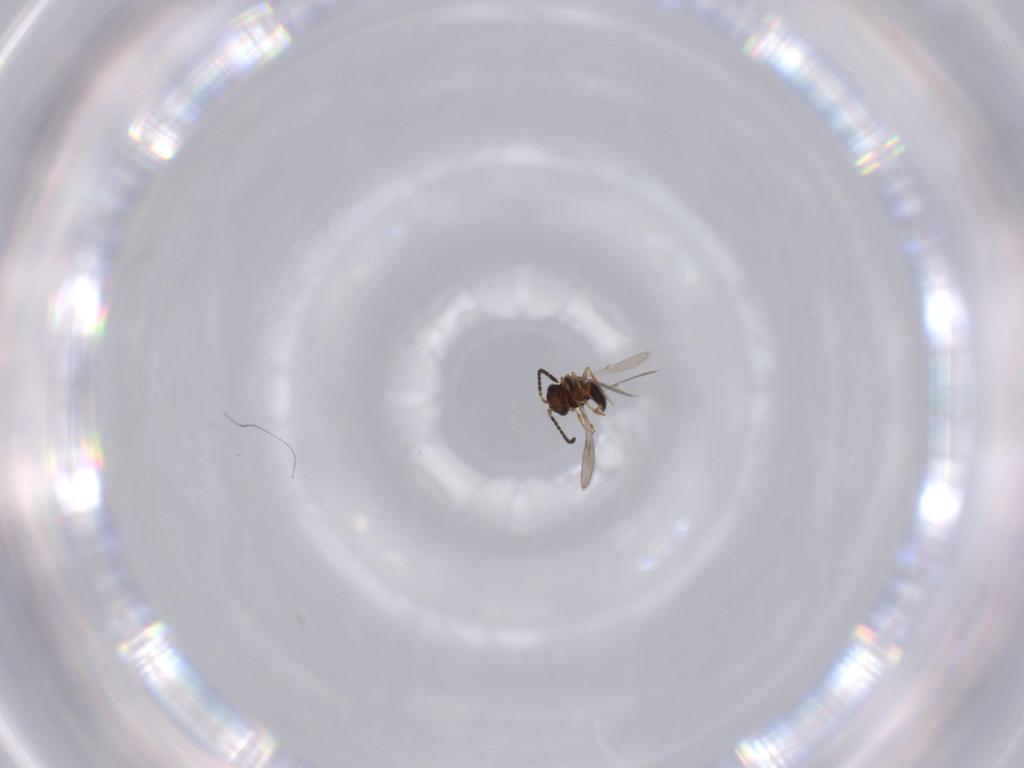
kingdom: Animalia
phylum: Arthropoda
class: Insecta
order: Hymenoptera
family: Scelionidae
